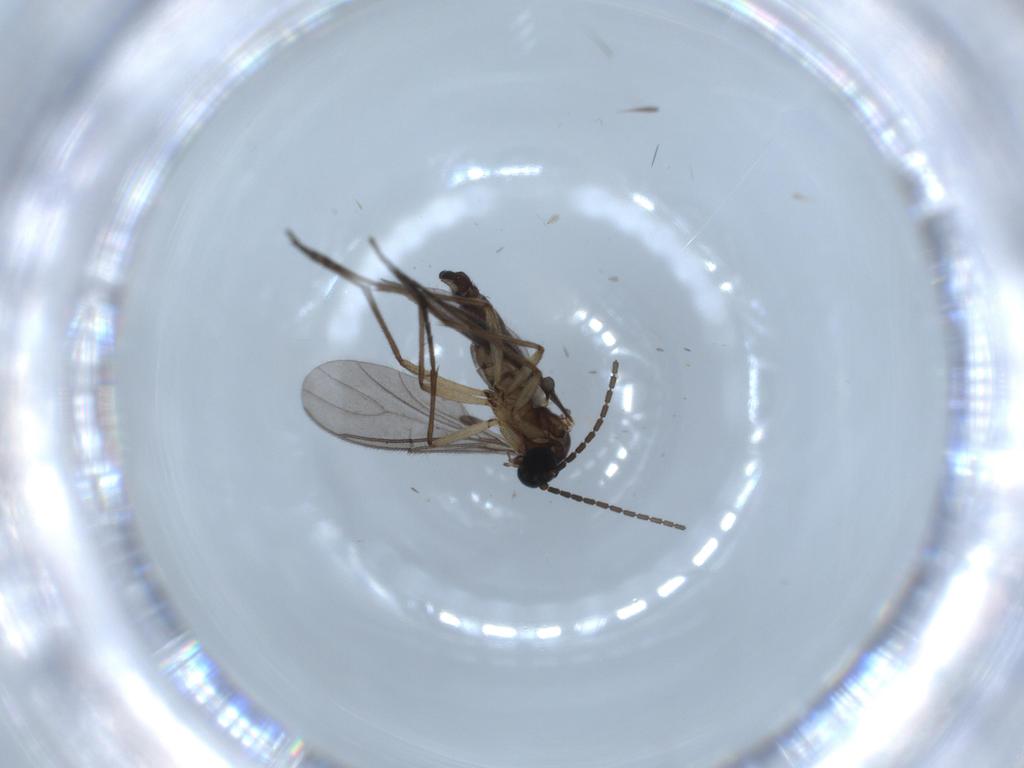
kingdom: Animalia
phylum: Arthropoda
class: Insecta
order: Diptera
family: Sciaridae
